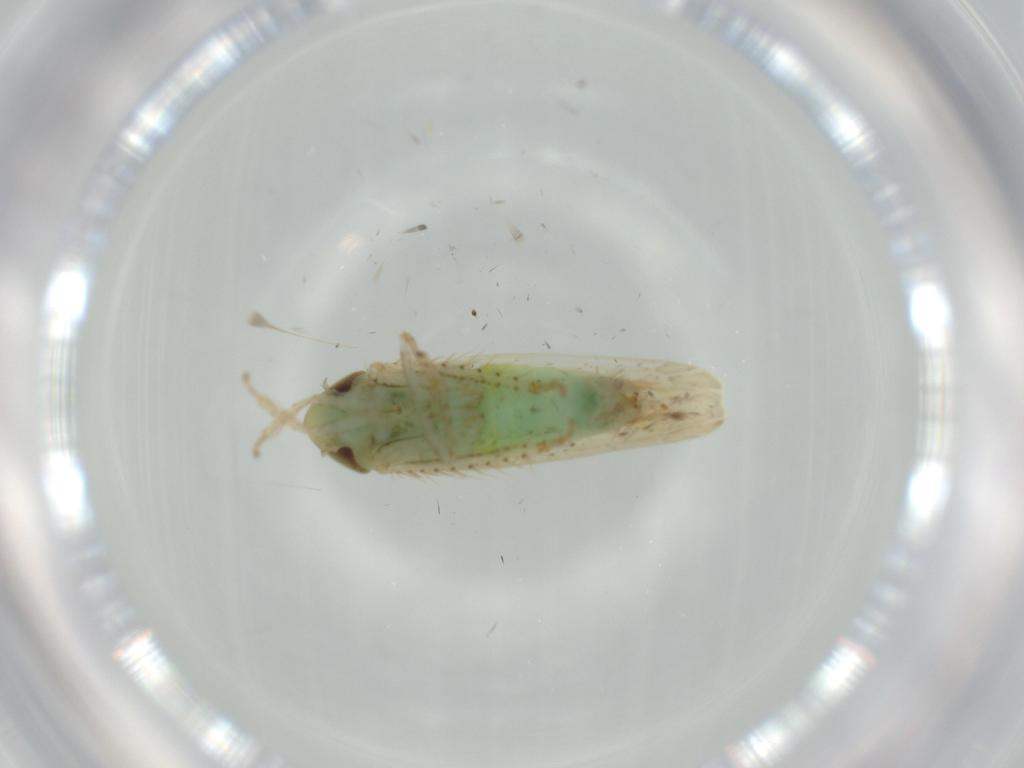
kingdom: Animalia
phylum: Arthropoda
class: Insecta
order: Hemiptera
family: Cicadellidae
